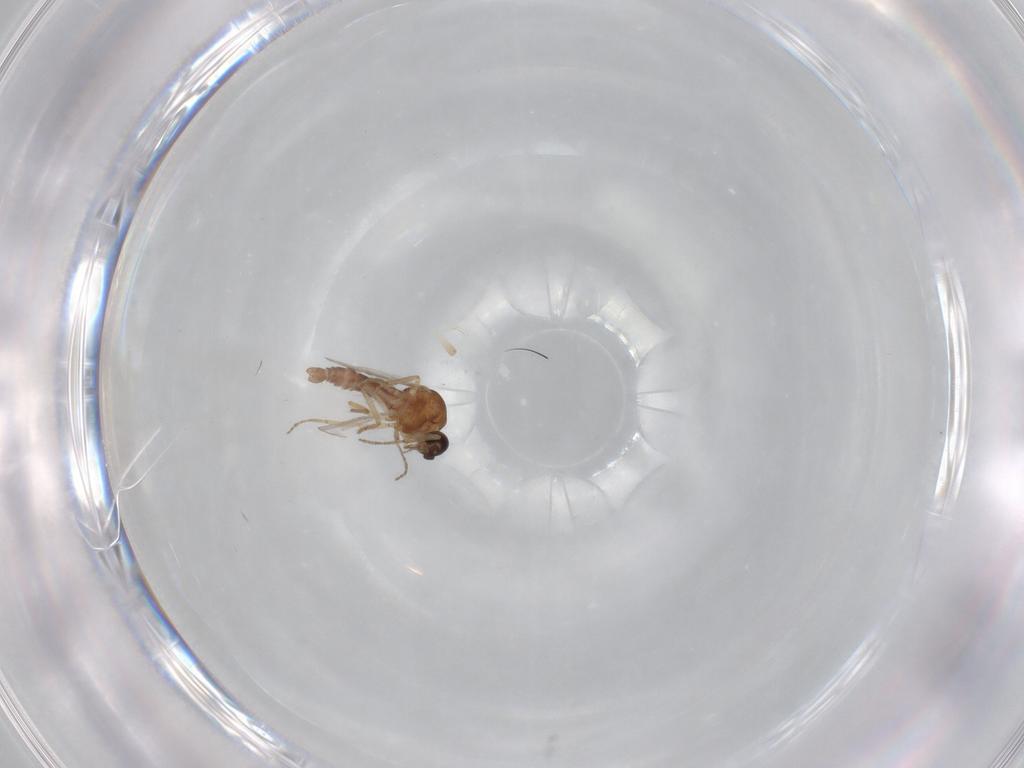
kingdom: Animalia
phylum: Arthropoda
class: Insecta
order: Diptera
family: Ceratopogonidae
